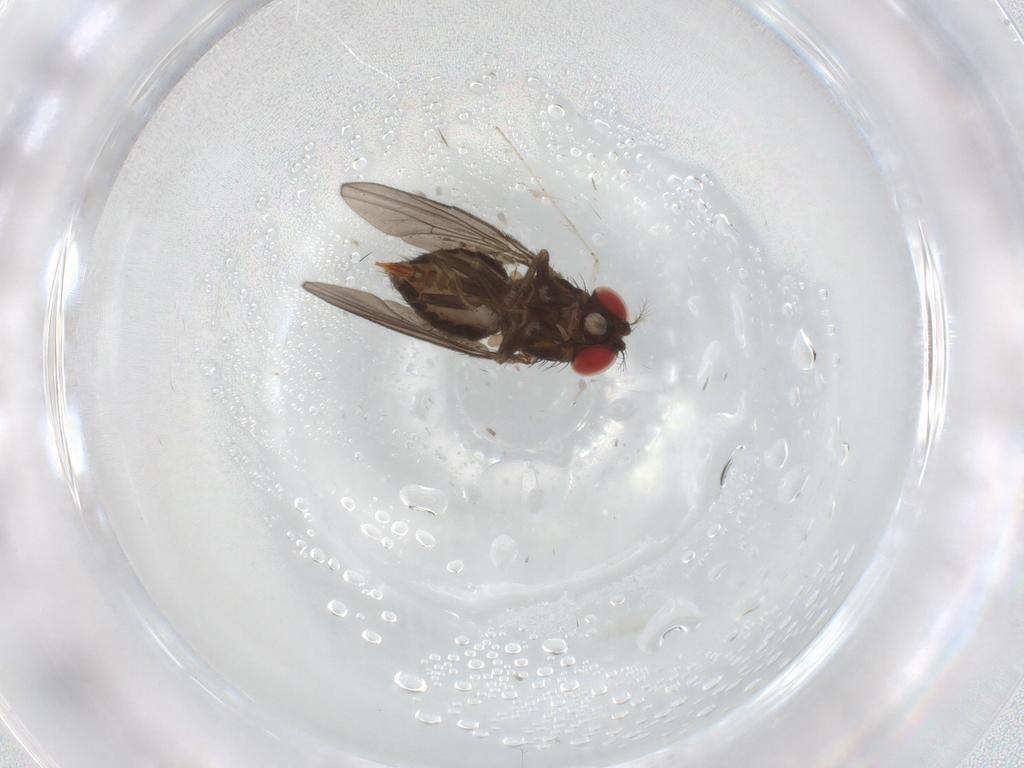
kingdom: Animalia
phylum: Arthropoda
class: Insecta
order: Diptera
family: Drosophilidae
